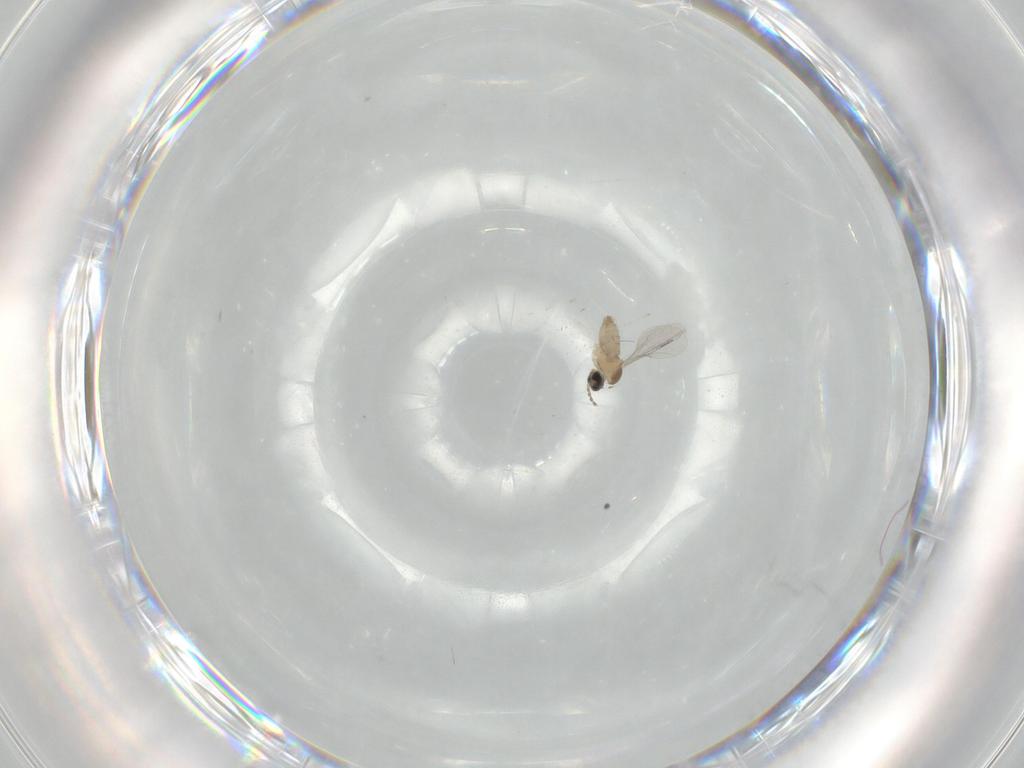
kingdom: Animalia
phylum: Arthropoda
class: Insecta
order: Diptera
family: Cecidomyiidae
